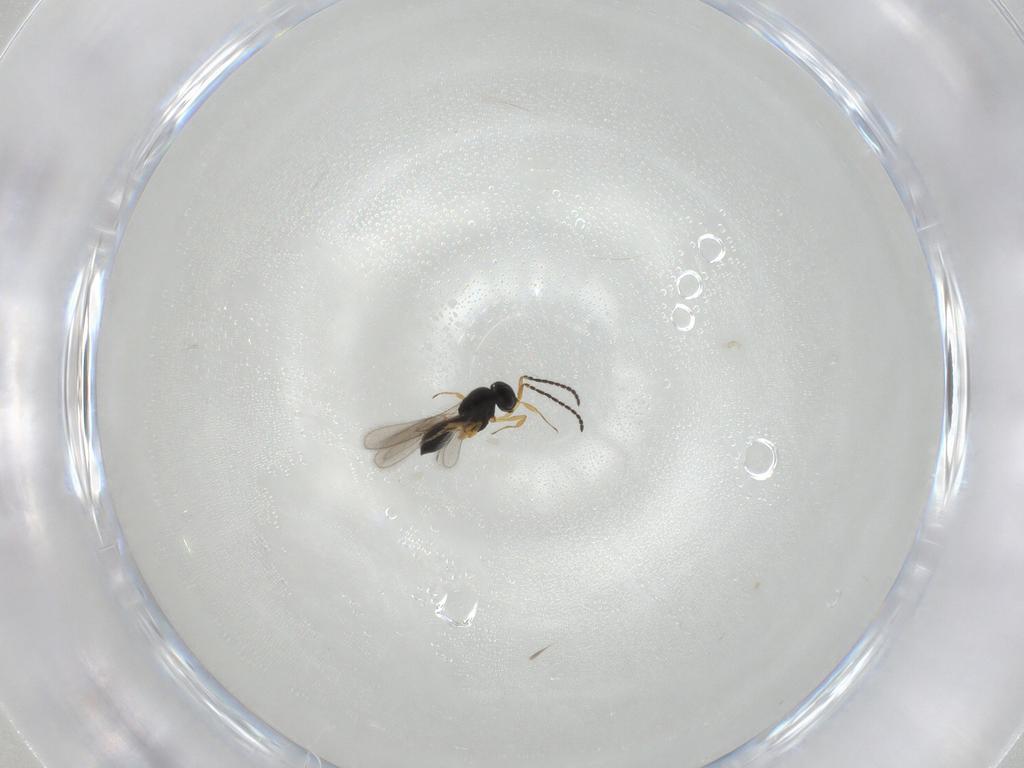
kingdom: Animalia
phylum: Arthropoda
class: Insecta
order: Hymenoptera
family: Scelionidae
